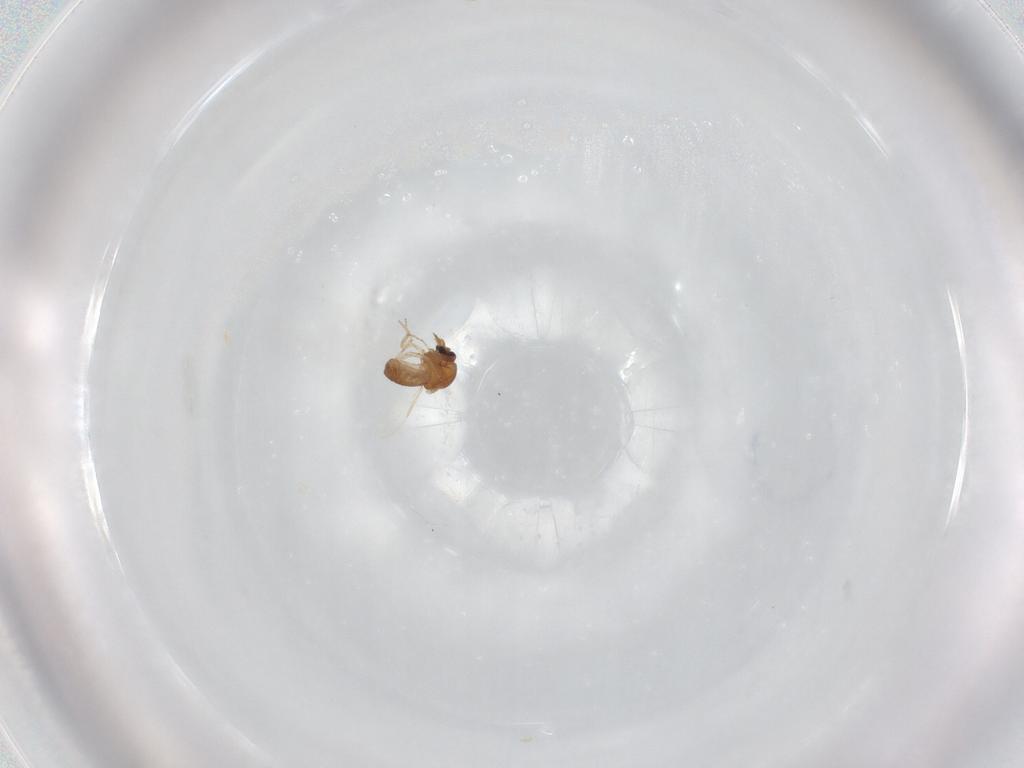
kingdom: Animalia
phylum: Arthropoda
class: Insecta
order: Diptera
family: Ceratopogonidae
